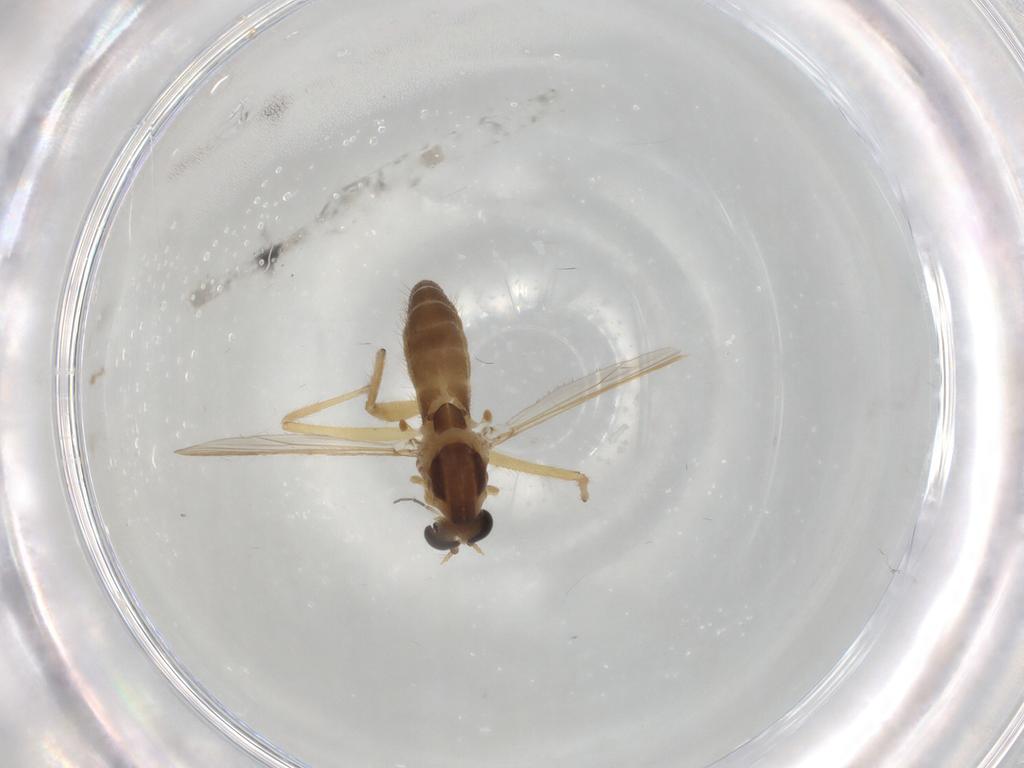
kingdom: Animalia
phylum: Arthropoda
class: Insecta
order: Diptera
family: Chironomidae
